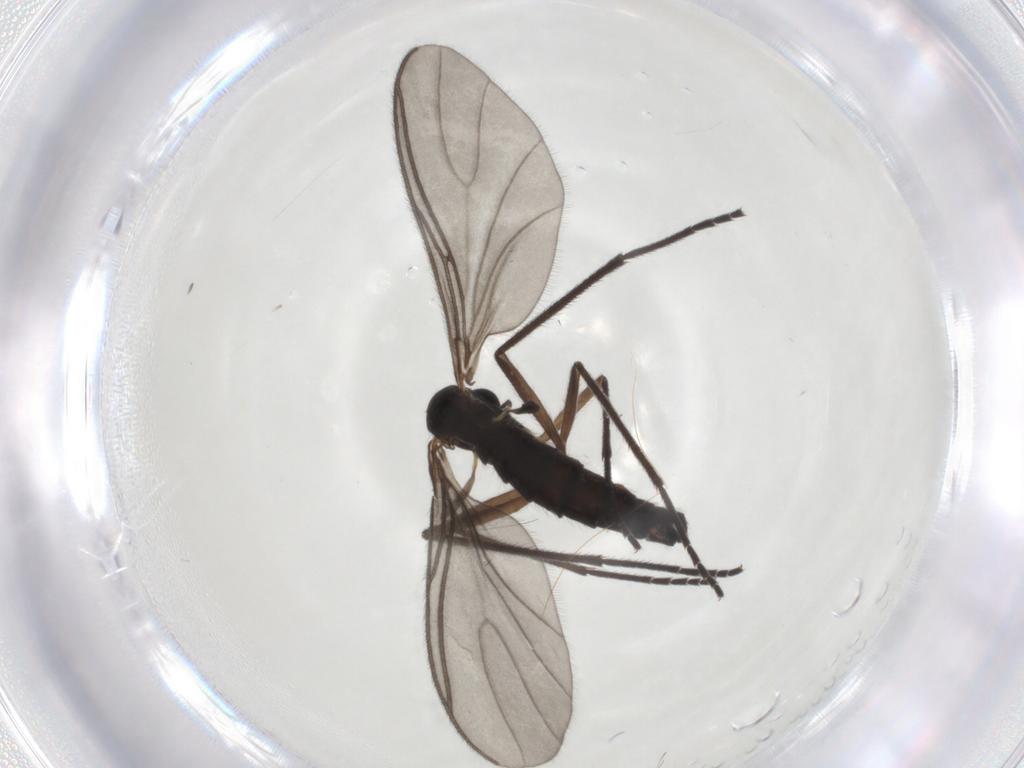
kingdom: Animalia
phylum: Arthropoda
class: Insecta
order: Diptera
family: Sciaridae
